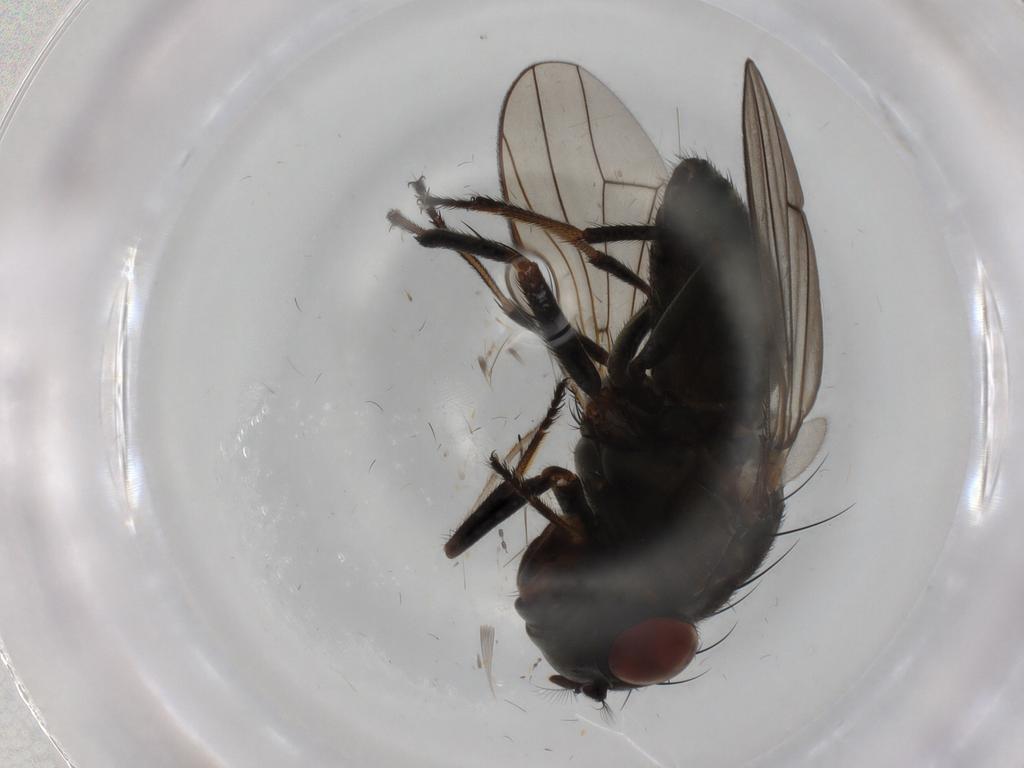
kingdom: Animalia
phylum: Arthropoda
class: Insecta
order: Diptera
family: Ephydridae
